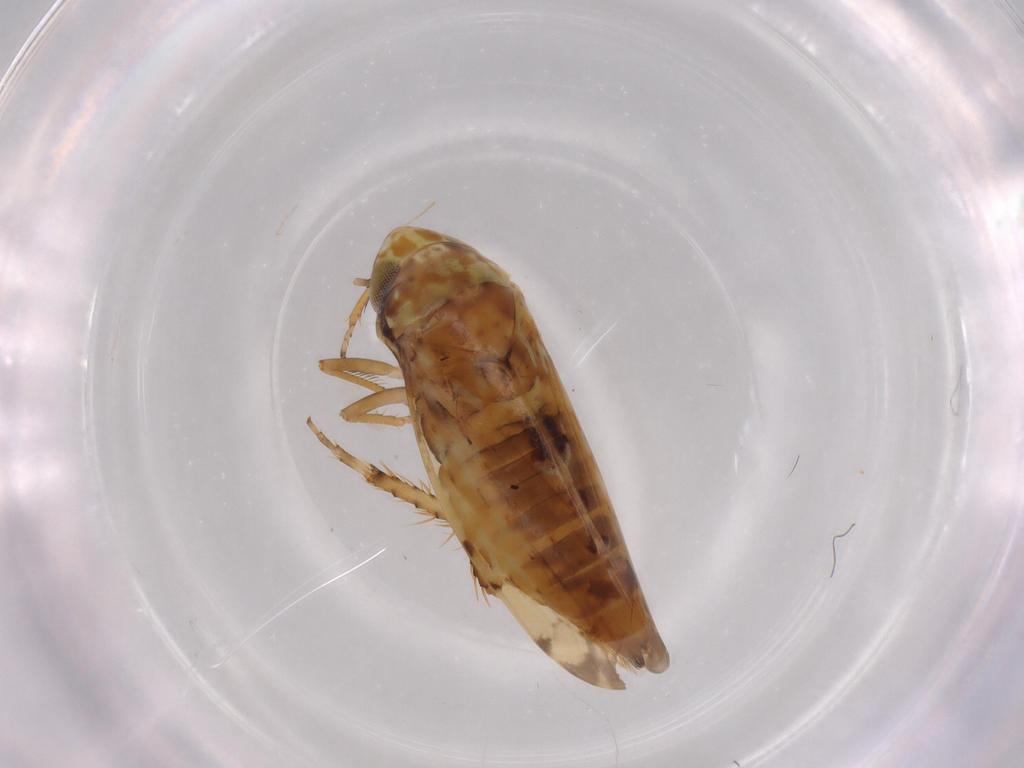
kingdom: Animalia
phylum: Arthropoda
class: Insecta
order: Hemiptera
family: Cicadellidae
